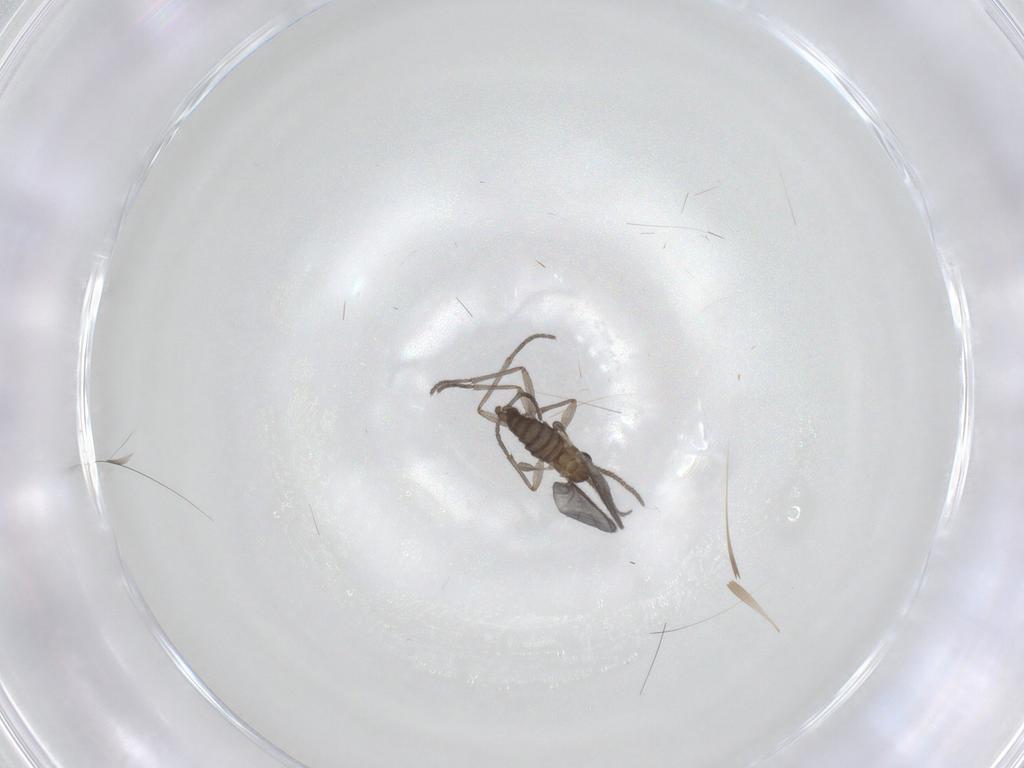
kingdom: Animalia
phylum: Arthropoda
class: Insecta
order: Diptera
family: Sciaridae
